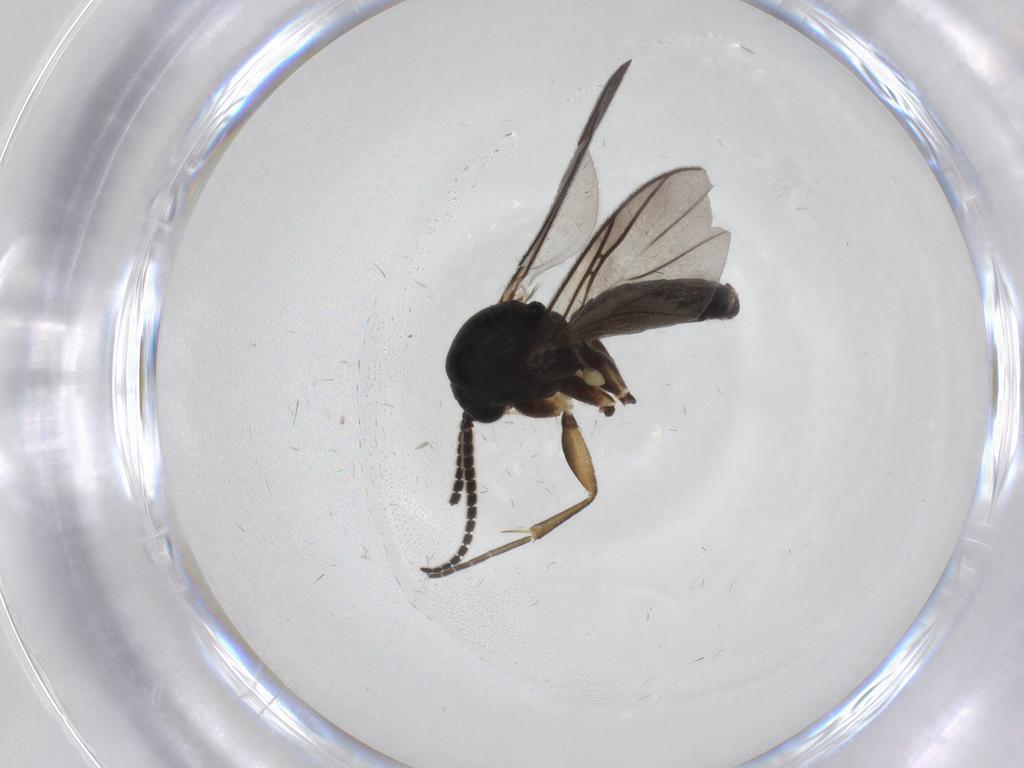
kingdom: Animalia
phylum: Arthropoda
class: Insecta
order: Diptera
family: Mycetophilidae
